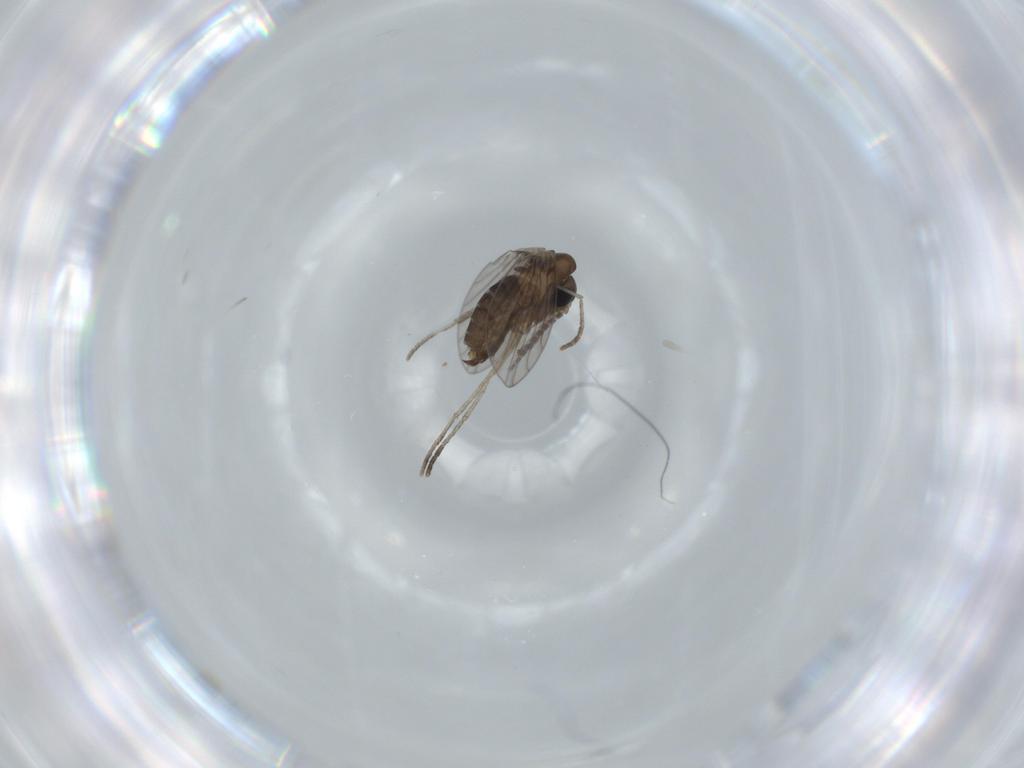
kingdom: Animalia
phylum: Arthropoda
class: Insecta
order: Diptera
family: Psychodidae
